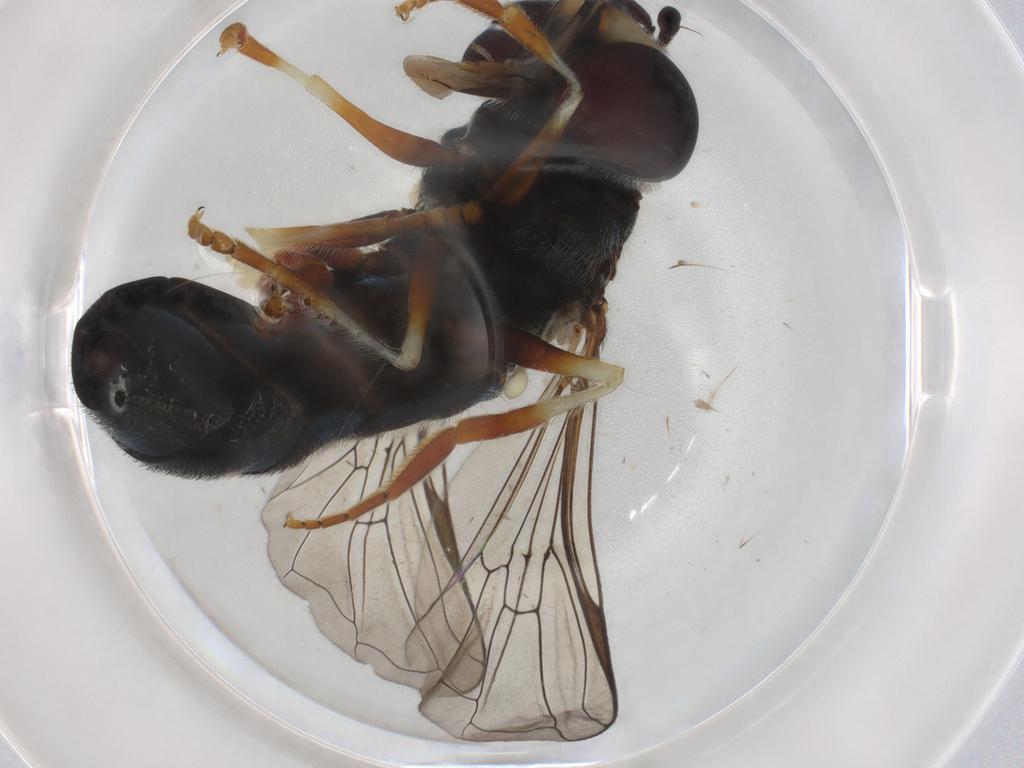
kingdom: Animalia
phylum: Arthropoda
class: Insecta
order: Diptera
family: Syrphidae
